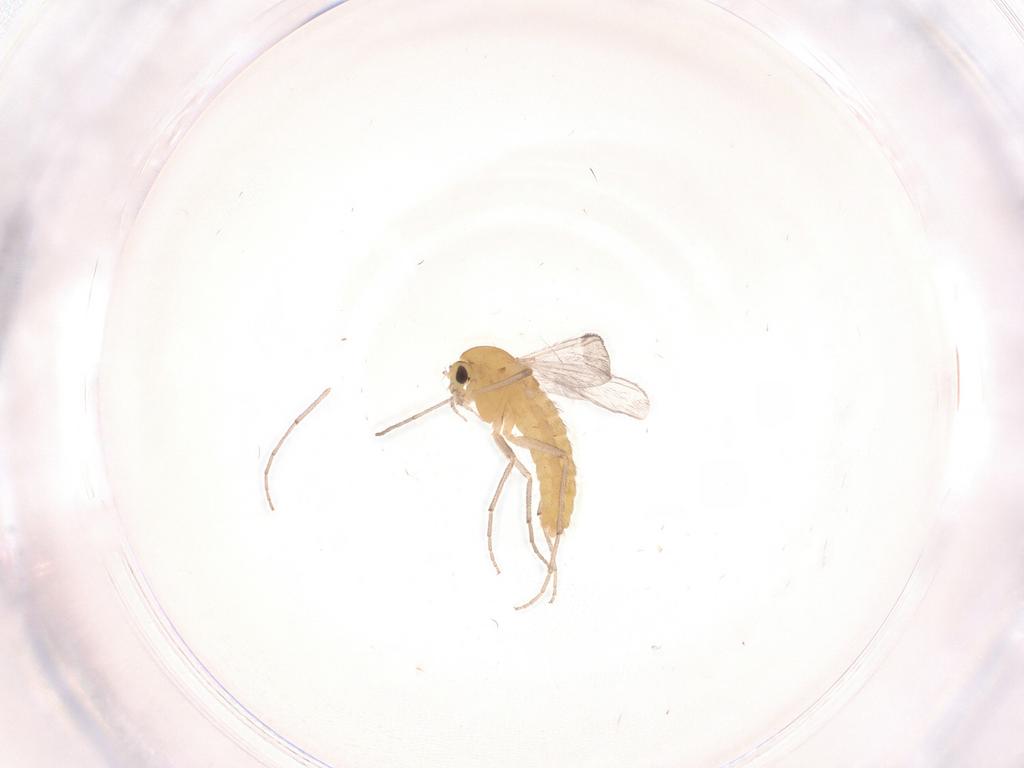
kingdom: Animalia
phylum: Arthropoda
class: Insecta
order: Diptera
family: Chironomidae
